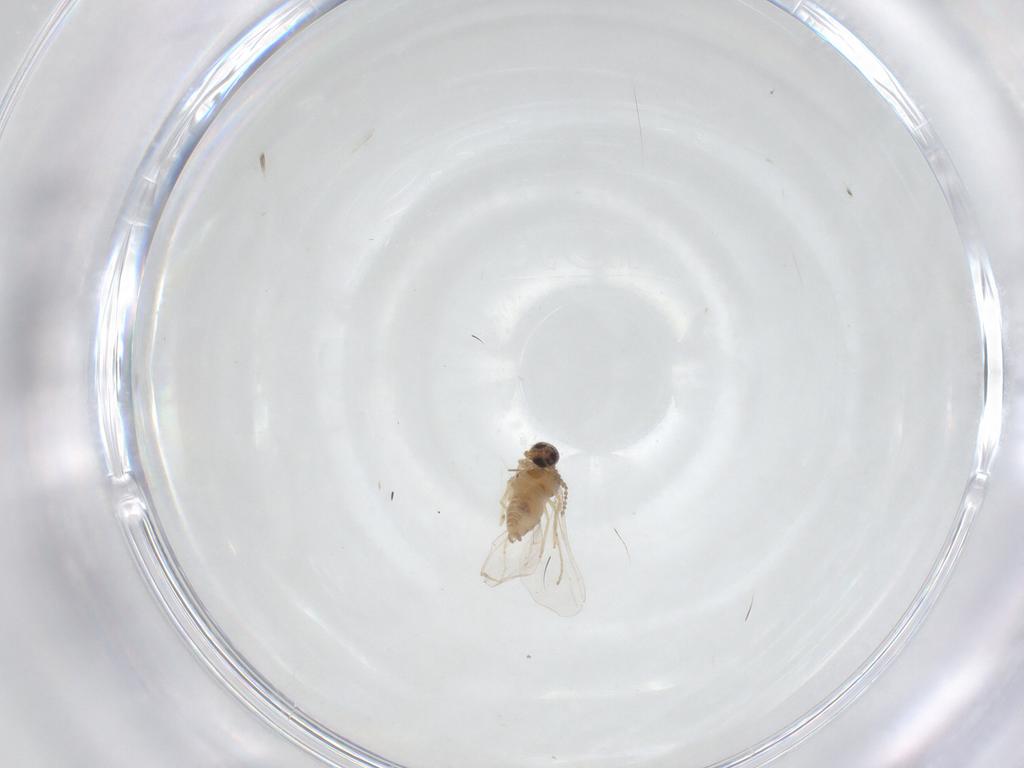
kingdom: Animalia
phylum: Arthropoda
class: Insecta
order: Diptera
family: Cecidomyiidae
